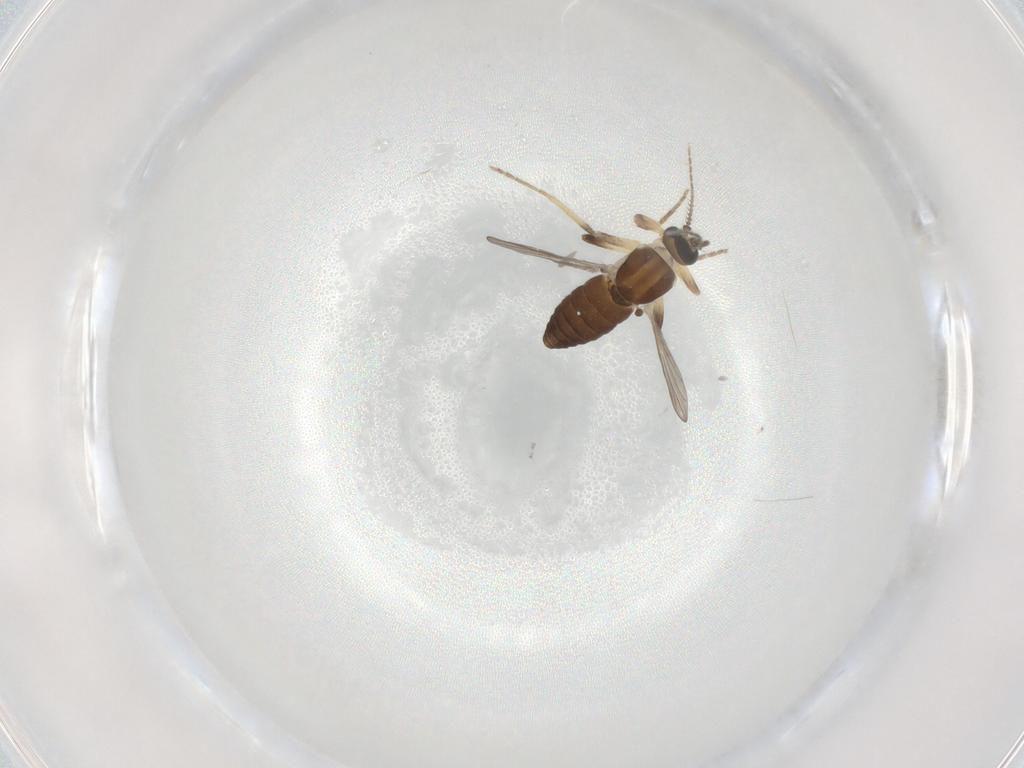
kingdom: Animalia
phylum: Arthropoda
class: Insecta
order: Diptera
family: Ceratopogonidae
